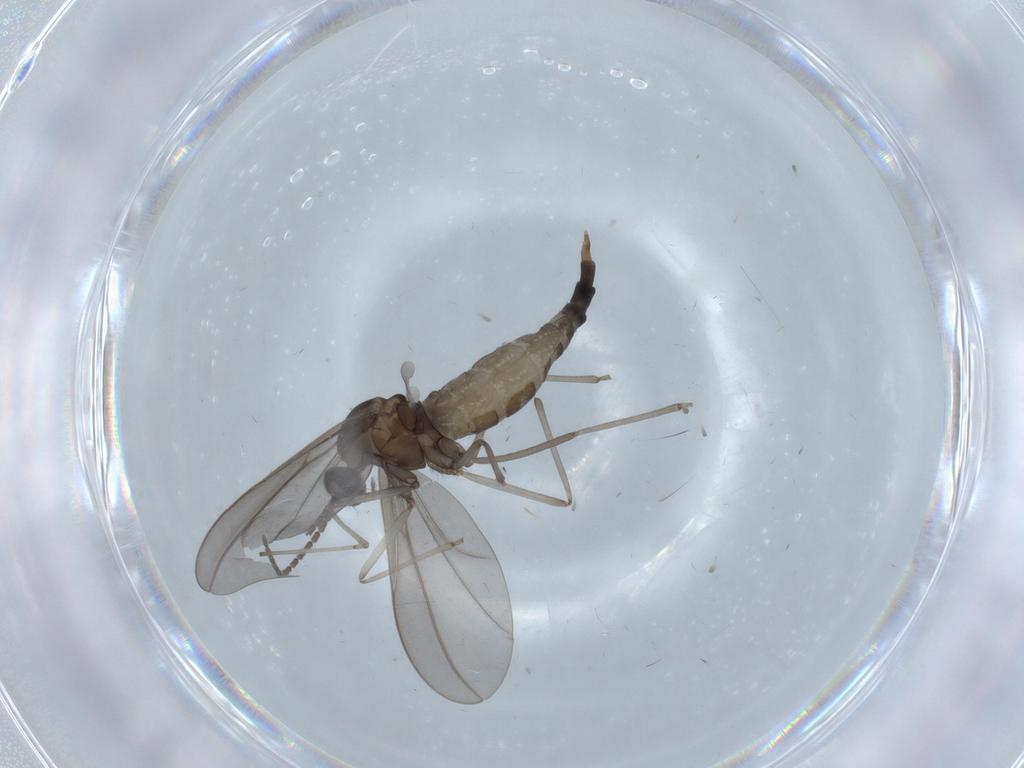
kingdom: Animalia
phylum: Arthropoda
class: Insecta
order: Diptera
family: Cecidomyiidae
